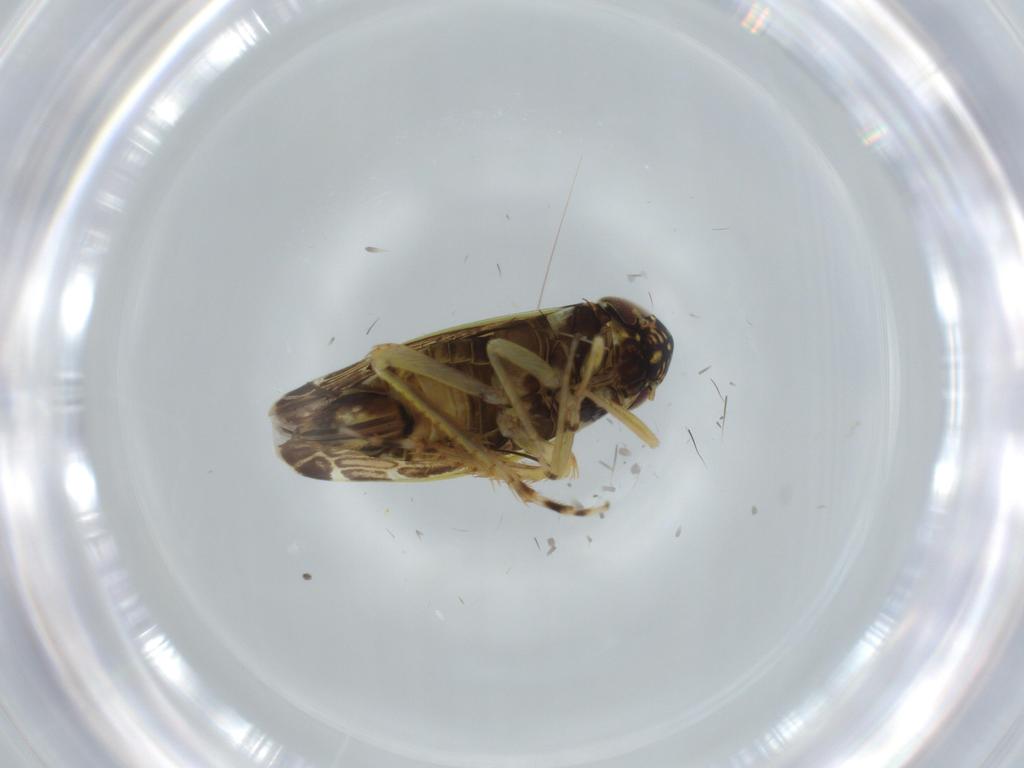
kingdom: Animalia
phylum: Arthropoda
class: Insecta
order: Hemiptera
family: Cicadellidae
